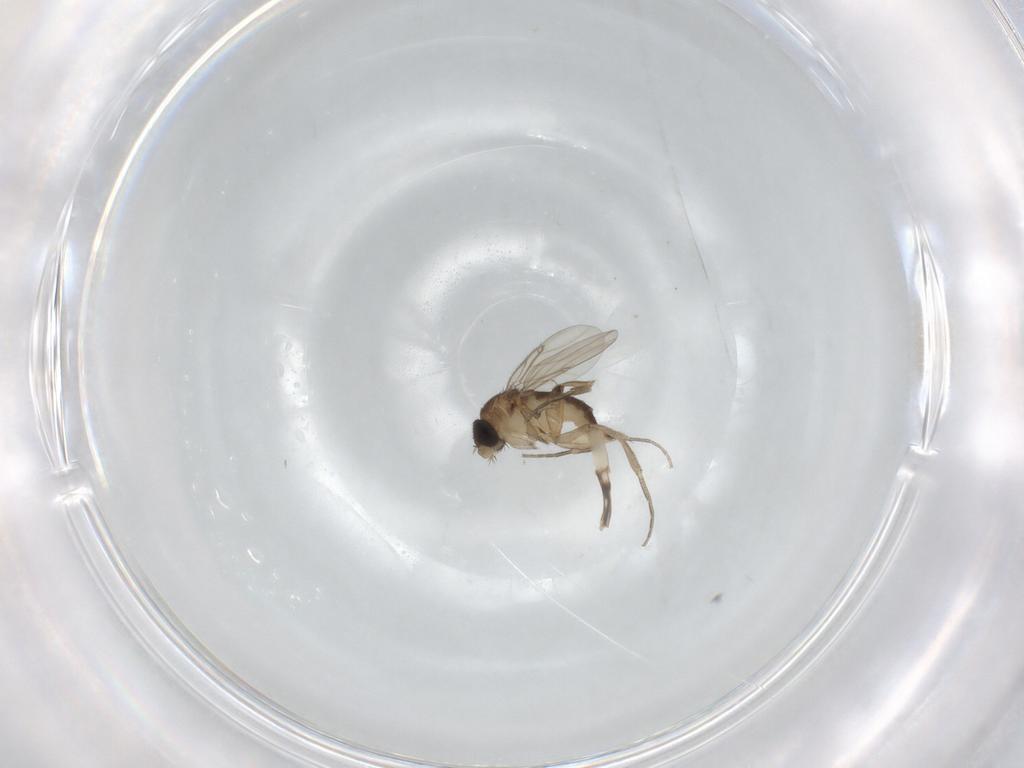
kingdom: Animalia
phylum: Arthropoda
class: Insecta
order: Diptera
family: Phoridae
